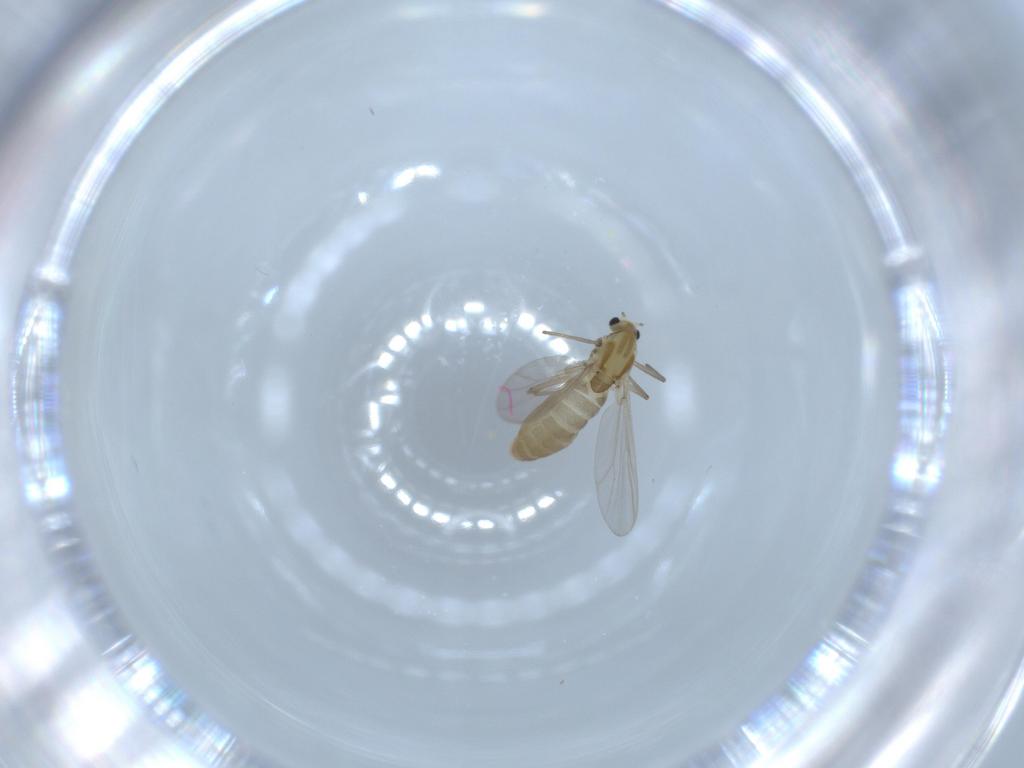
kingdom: Animalia
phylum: Arthropoda
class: Insecta
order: Diptera
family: Chironomidae
